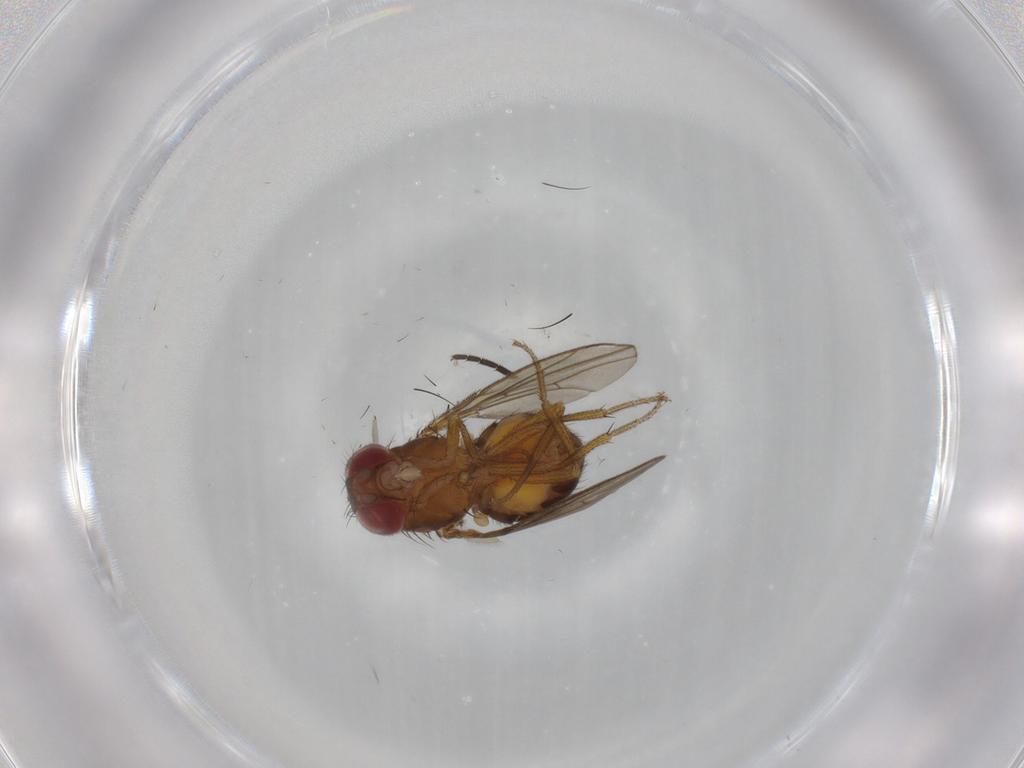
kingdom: Animalia
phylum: Arthropoda
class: Insecta
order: Diptera
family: Drosophilidae
